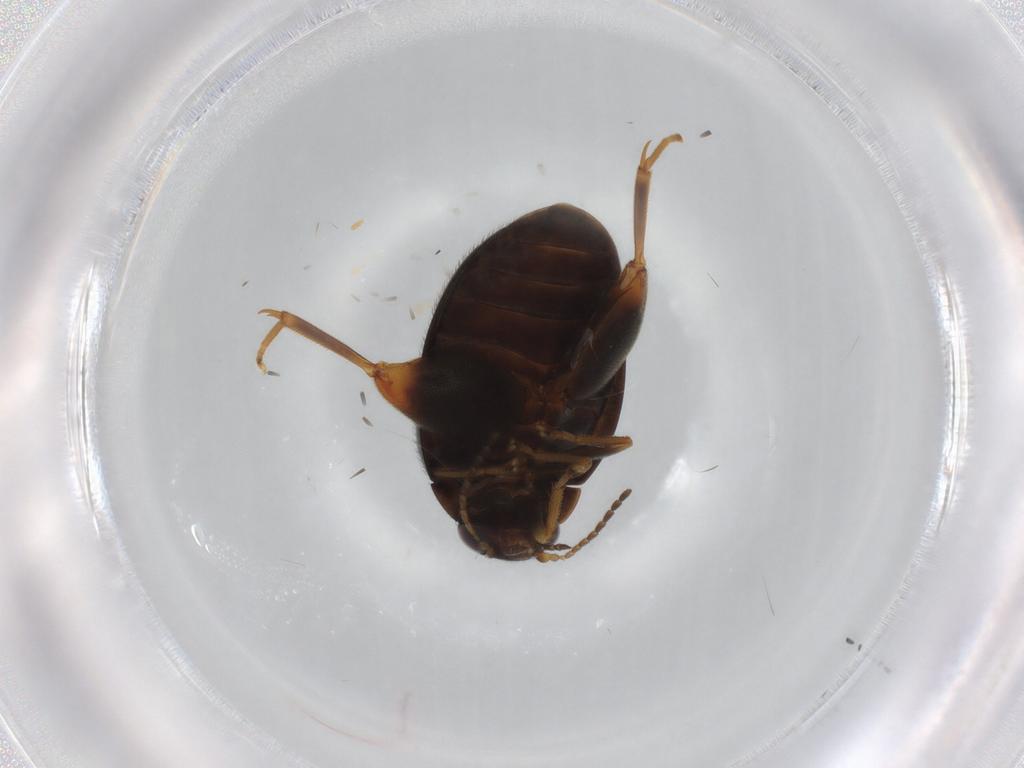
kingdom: Animalia
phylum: Arthropoda
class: Insecta
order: Coleoptera
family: Scirtidae
